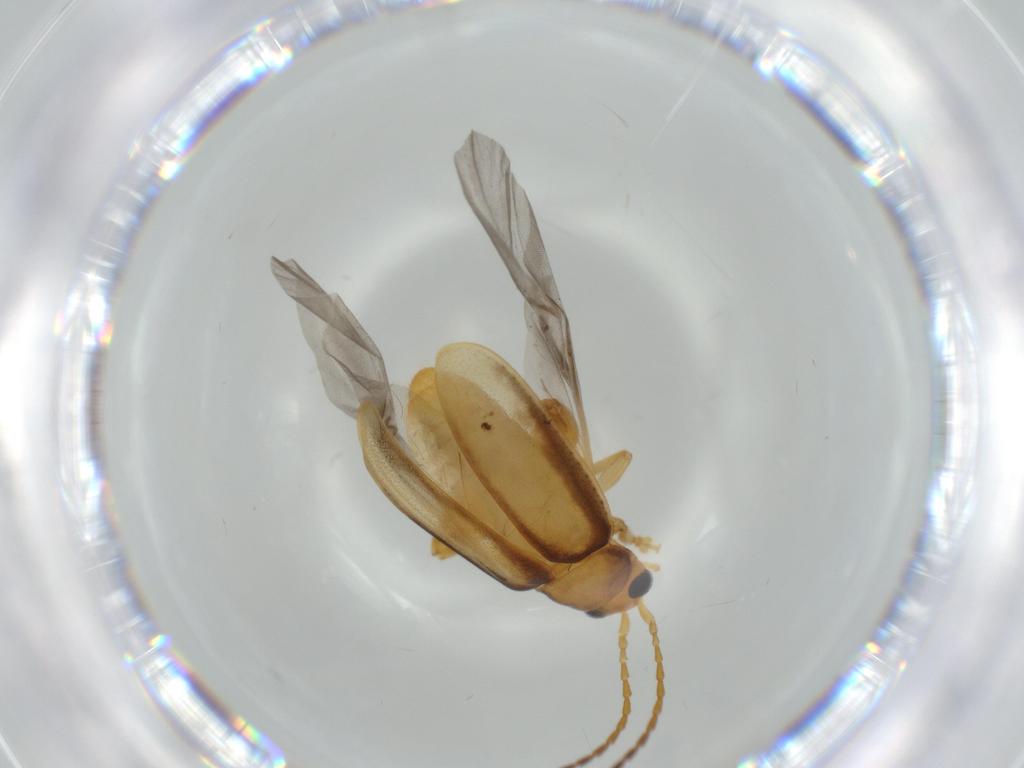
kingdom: Animalia
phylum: Arthropoda
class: Insecta
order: Coleoptera
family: Chrysomelidae
